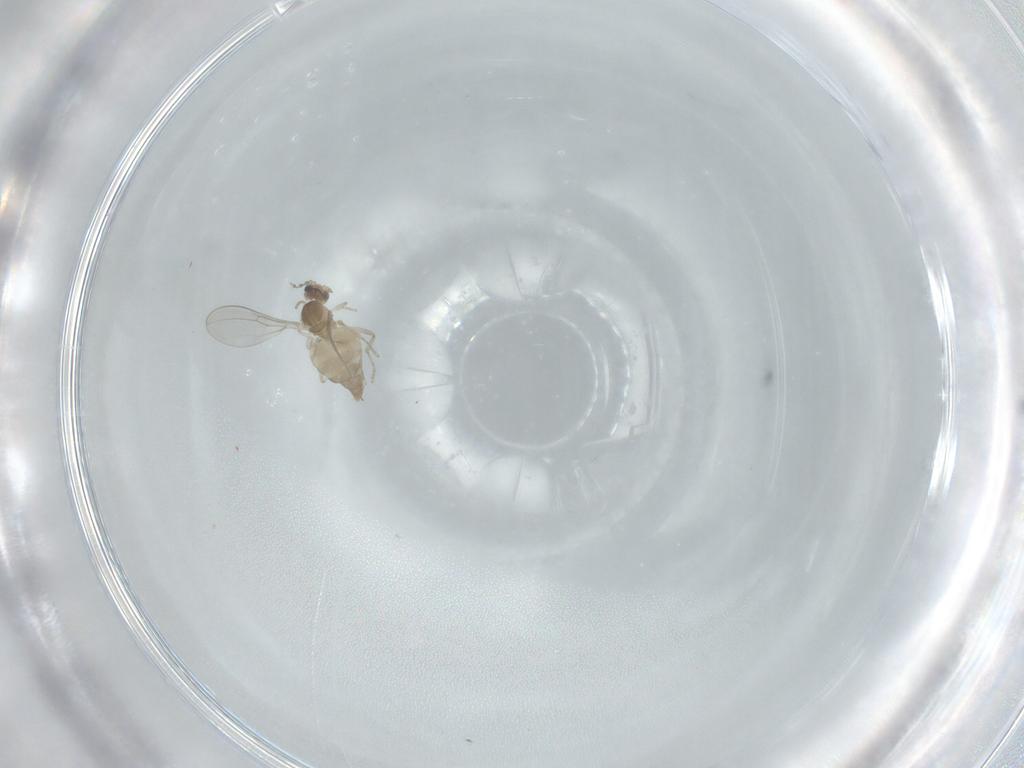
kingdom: Animalia
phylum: Arthropoda
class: Insecta
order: Diptera
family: Cecidomyiidae
